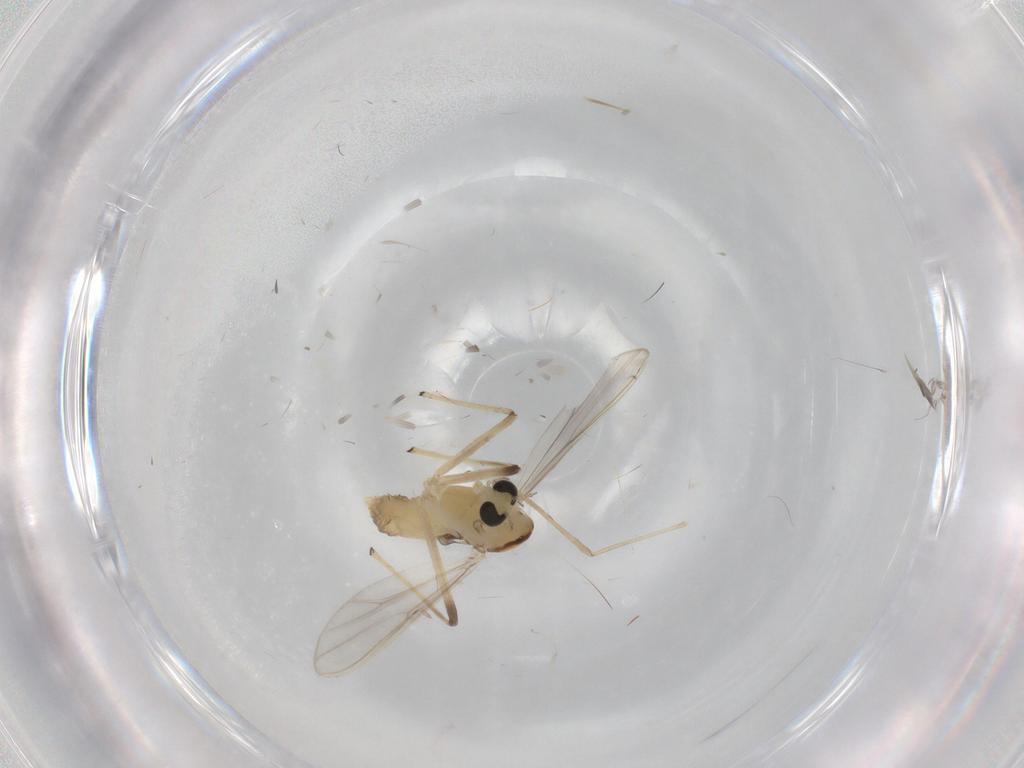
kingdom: Animalia
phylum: Arthropoda
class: Insecta
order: Diptera
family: Chironomidae
